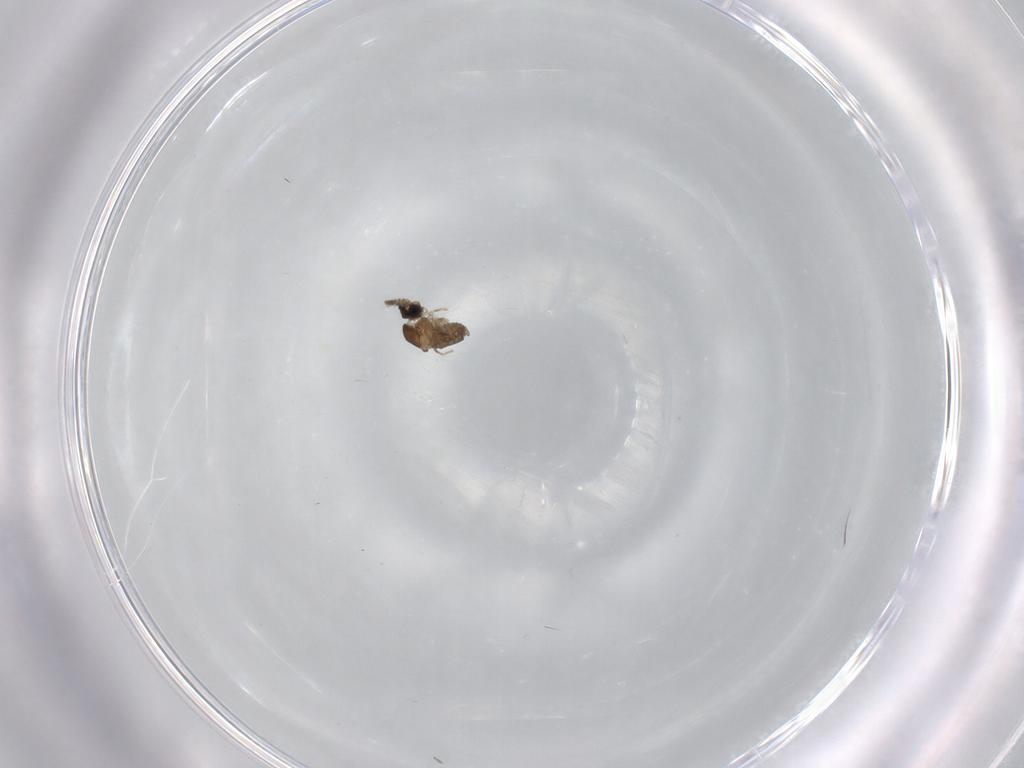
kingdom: Animalia
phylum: Arthropoda
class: Insecta
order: Diptera
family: Cecidomyiidae
